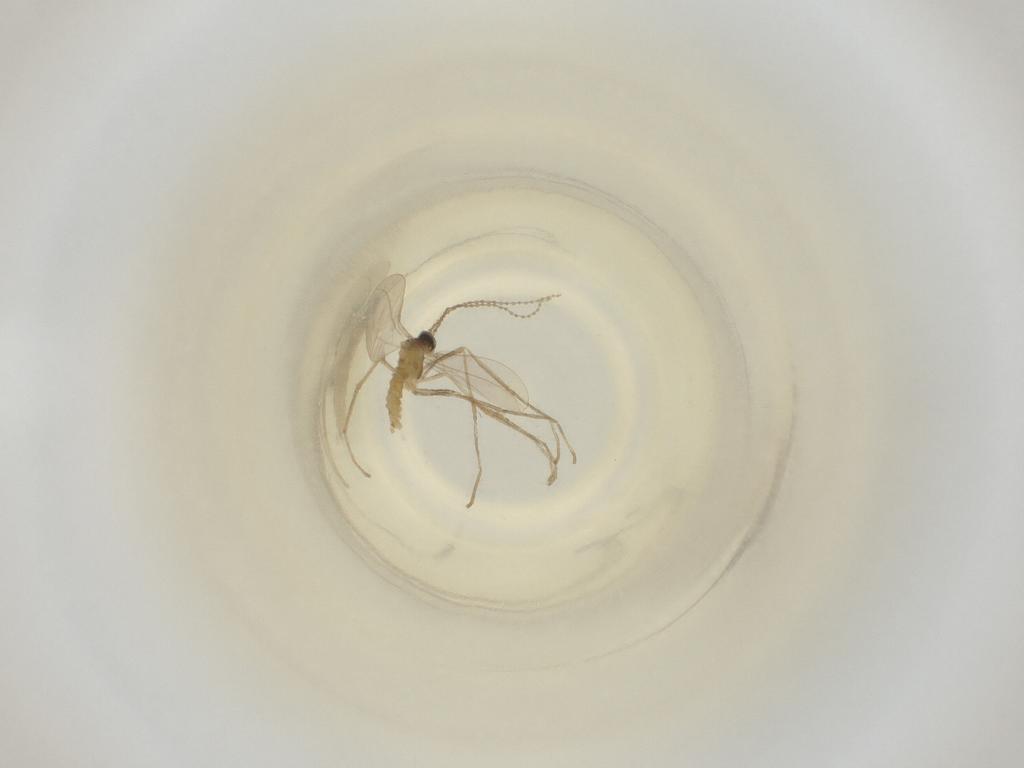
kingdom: Animalia
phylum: Arthropoda
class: Insecta
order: Diptera
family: Cecidomyiidae
